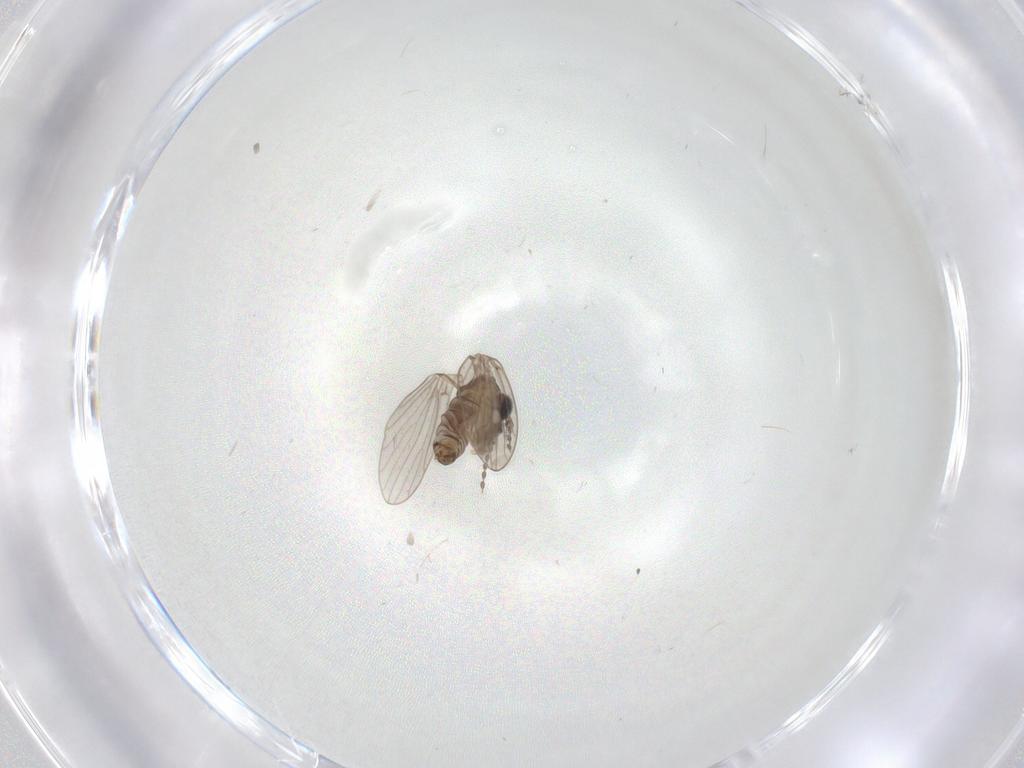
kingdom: Animalia
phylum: Arthropoda
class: Insecta
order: Diptera
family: Psychodidae
